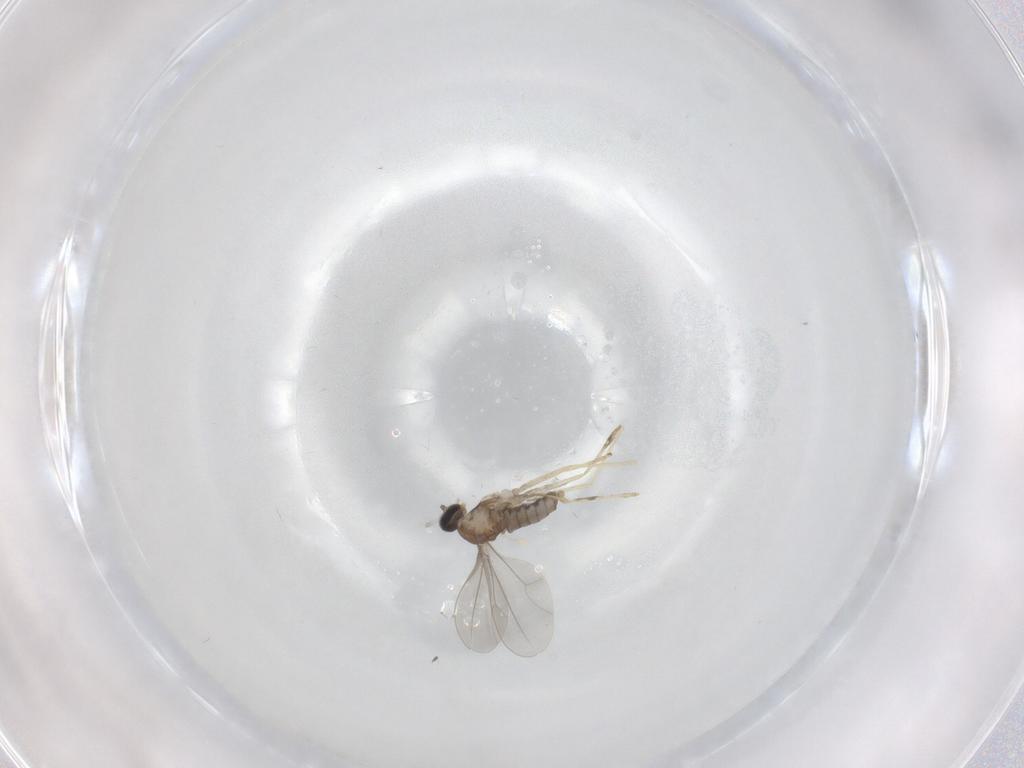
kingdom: Animalia
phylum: Arthropoda
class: Insecta
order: Diptera
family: Cecidomyiidae
